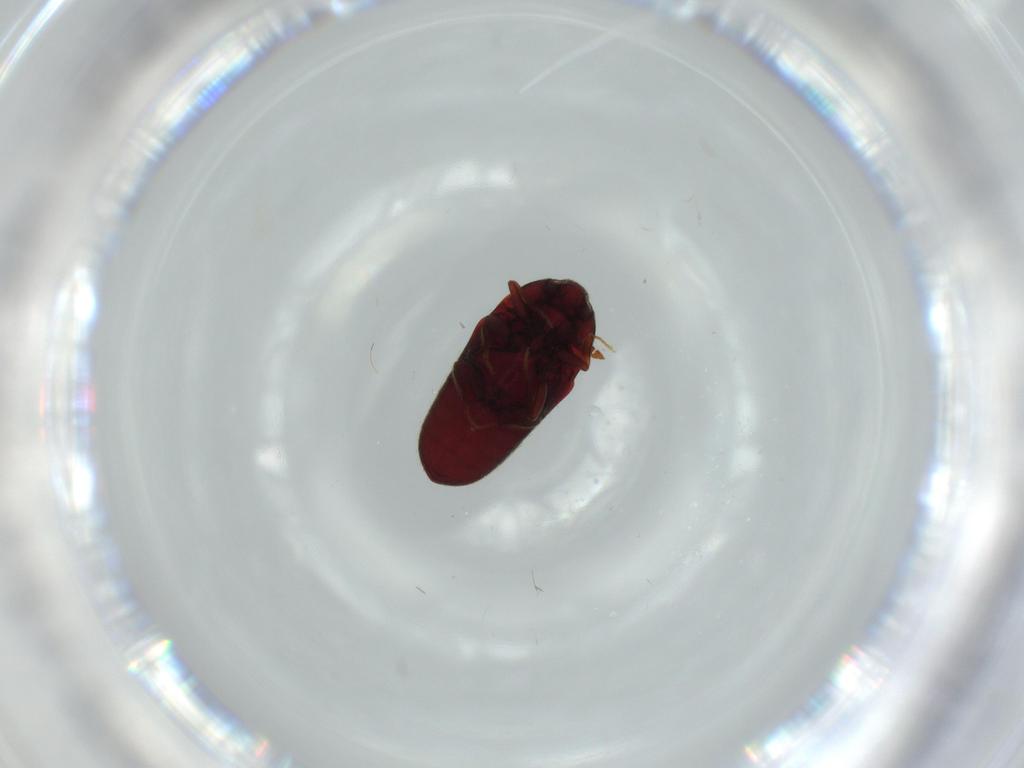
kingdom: Animalia
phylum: Arthropoda
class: Insecta
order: Coleoptera
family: Throscidae
